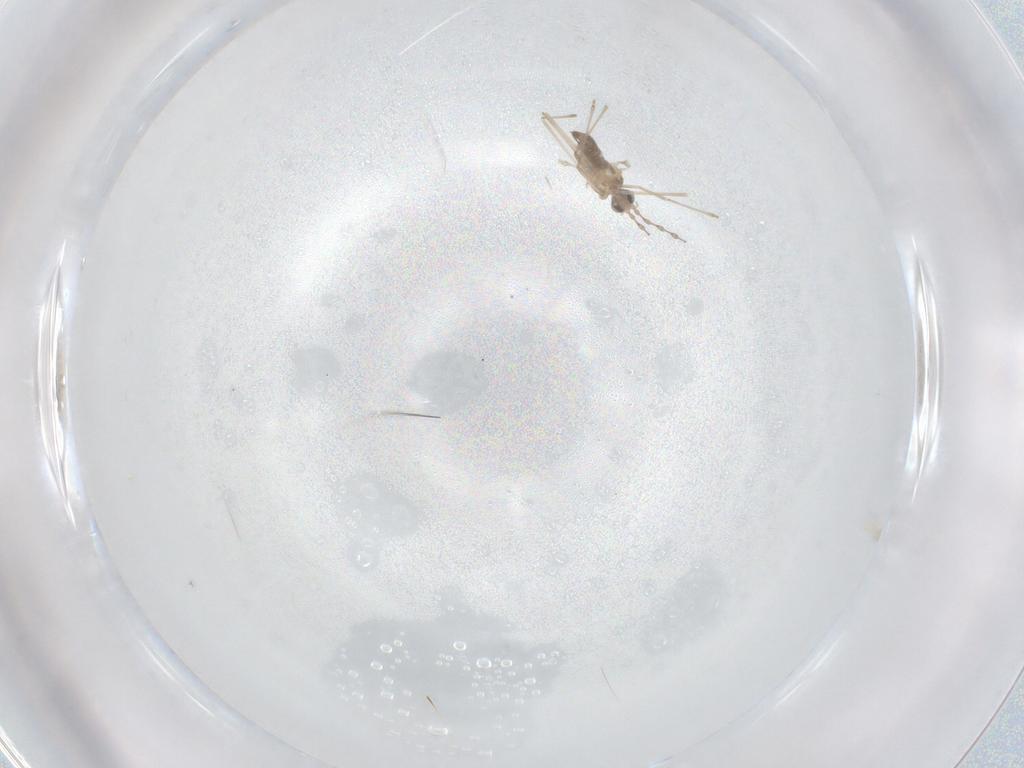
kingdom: Animalia
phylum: Arthropoda
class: Insecta
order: Diptera
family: Cecidomyiidae
